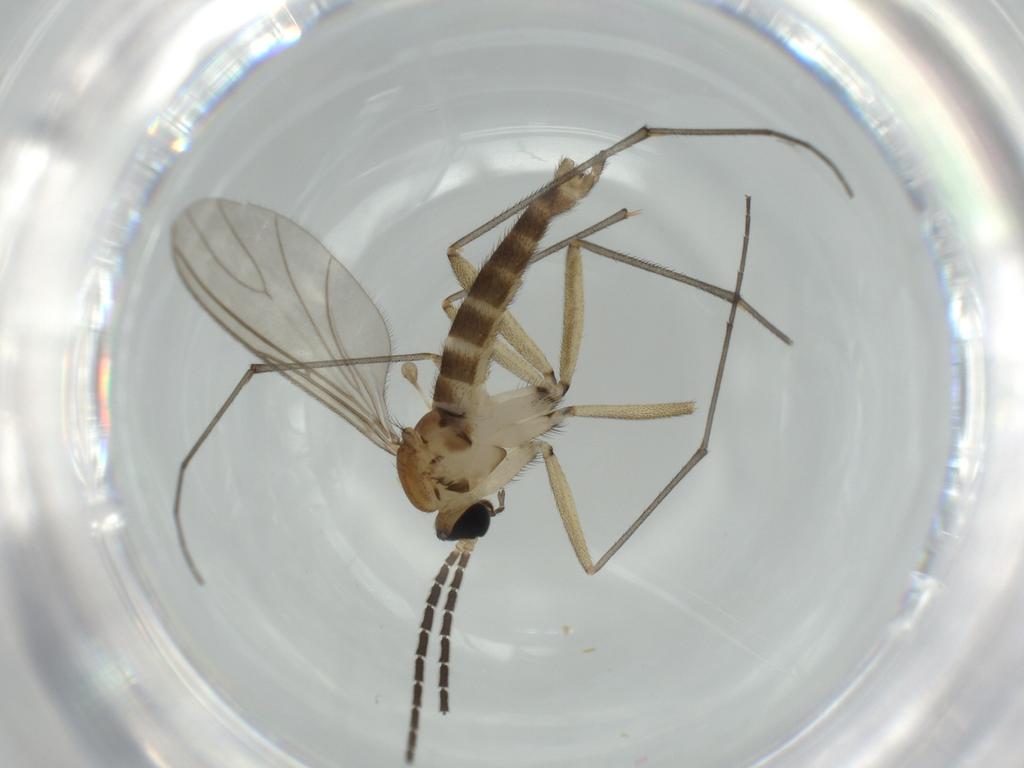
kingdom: Animalia
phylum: Arthropoda
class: Insecta
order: Diptera
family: Sciaridae
